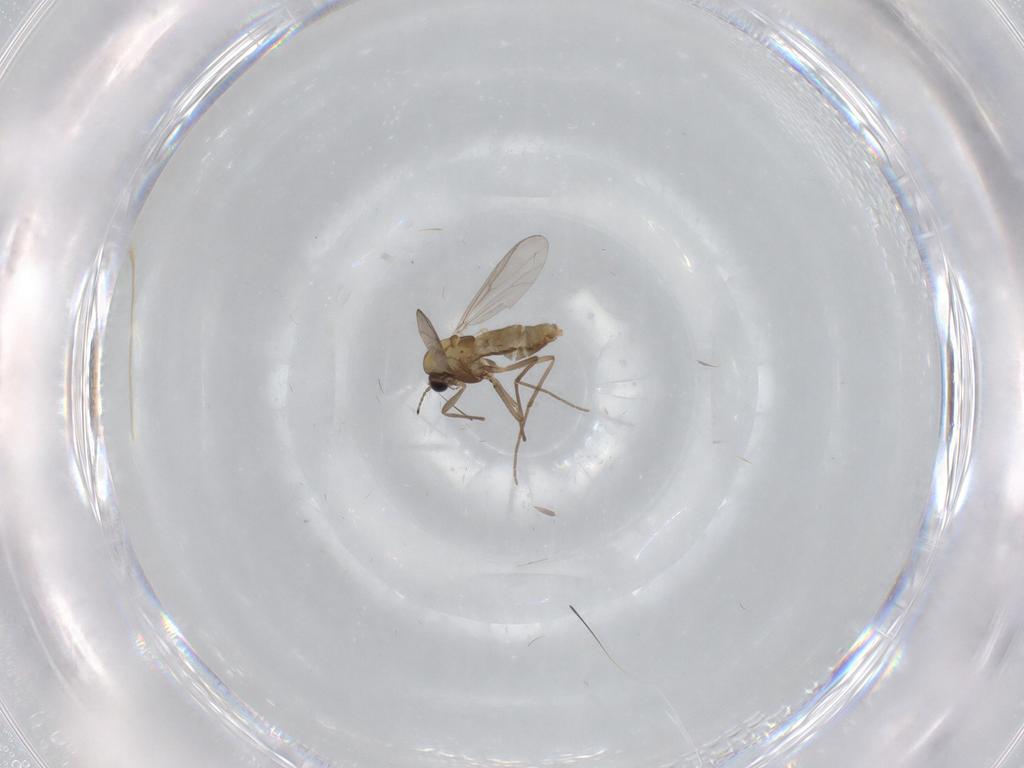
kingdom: Animalia
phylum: Arthropoda
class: Insecta
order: Diptera
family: Chironomidae
